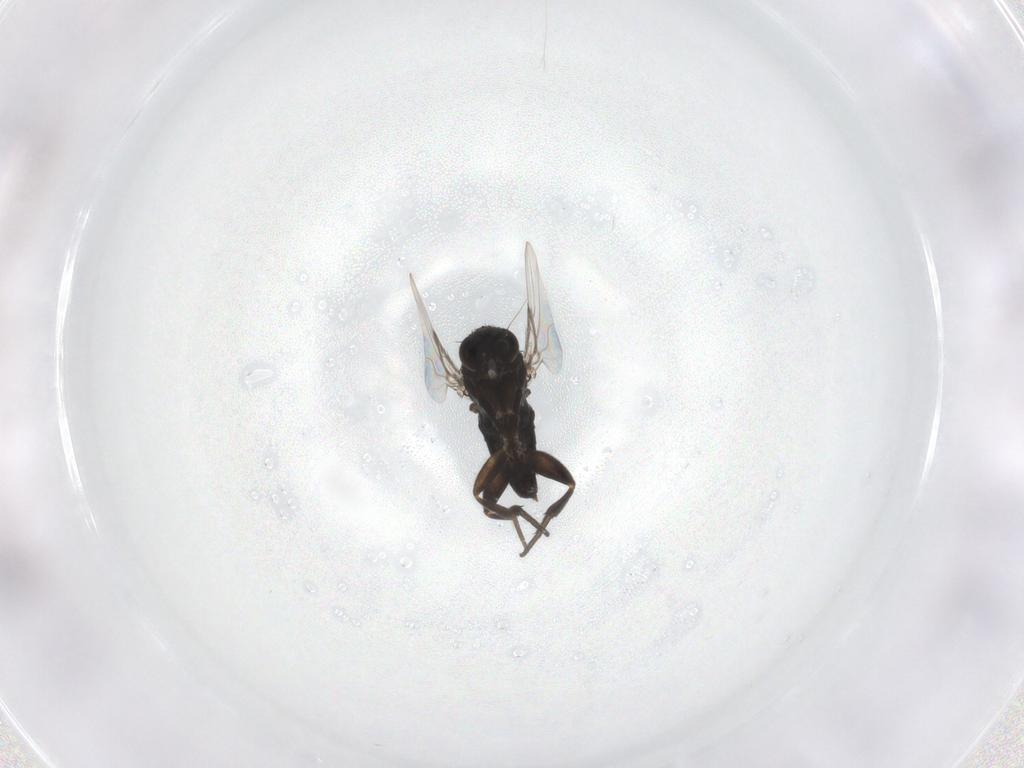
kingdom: Animalia
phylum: Arthropoda
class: Insecta
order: Diptera
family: Phoridae
